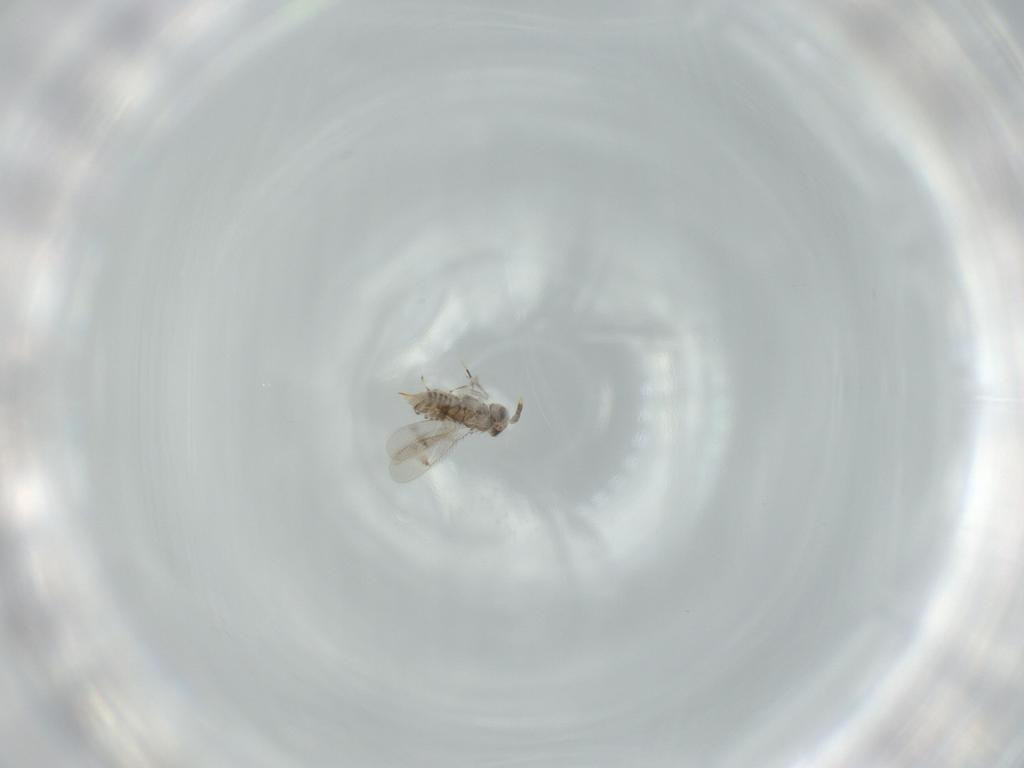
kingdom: Animalia
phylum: Arthropoda
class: Insecta
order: Hymenoptera
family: Aphelinidae
